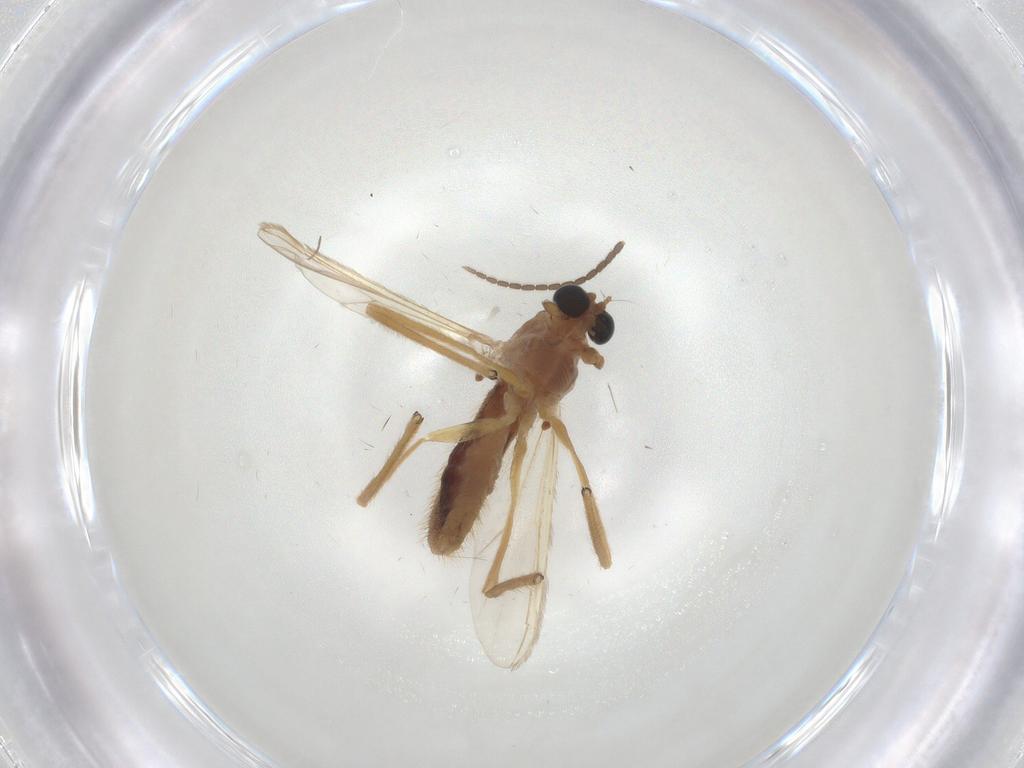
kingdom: Animalia
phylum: Arthropoda
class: Insecta
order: Diptera
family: Chironomidae
